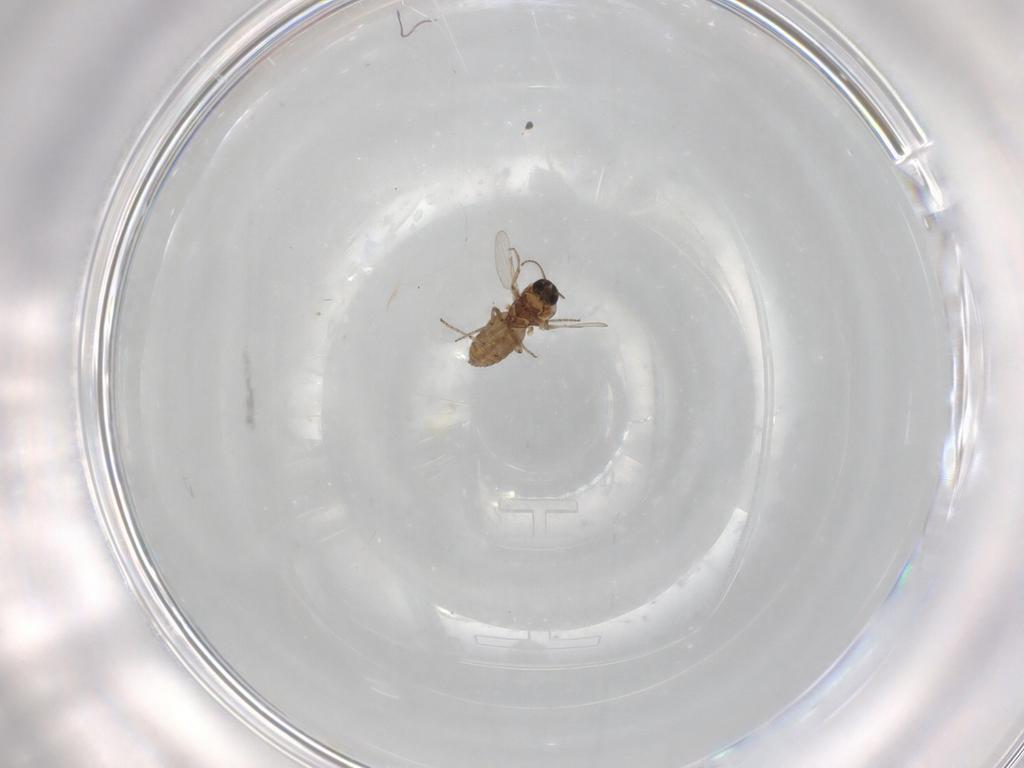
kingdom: Animalia
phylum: Arthropoda
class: Insecta
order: Diptera
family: Ceratopogonidae
